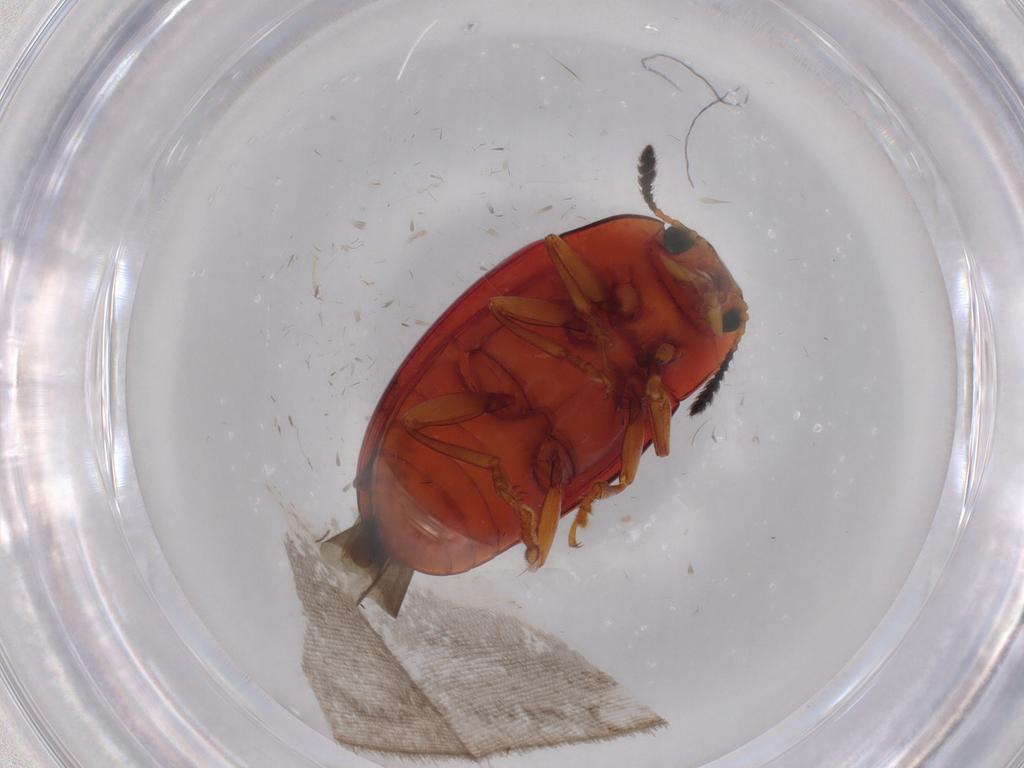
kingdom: Animalia
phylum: Arthropoda
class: Insecta
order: Coleoptera
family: Erotylidae
